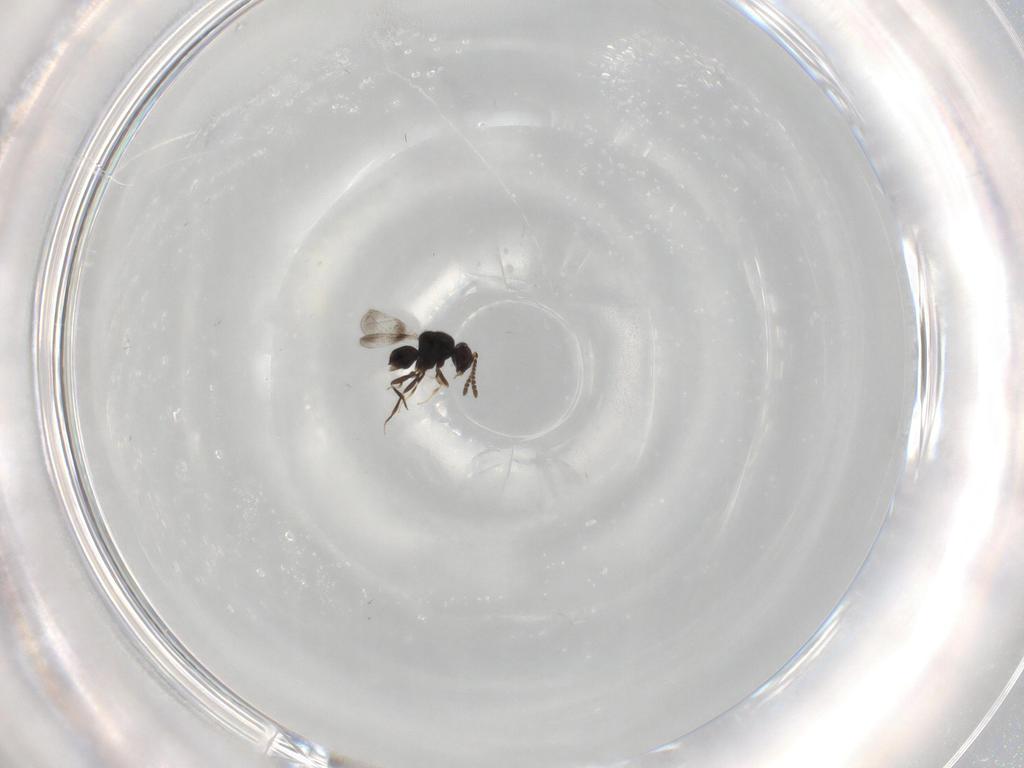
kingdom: Animalia
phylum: Arthropoda
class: Insecta
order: Hymenoptera
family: Ceraphronidae
